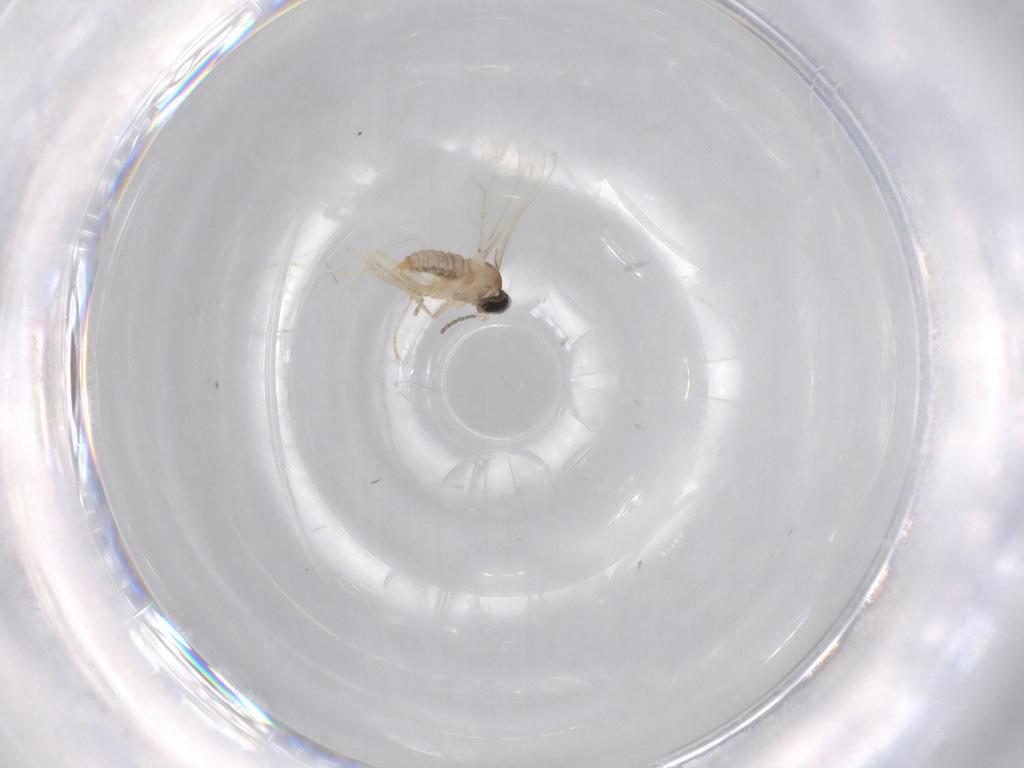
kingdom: Animalia
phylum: Arthropoda
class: Insecta
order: Diptera
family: Cecidomyiidae
